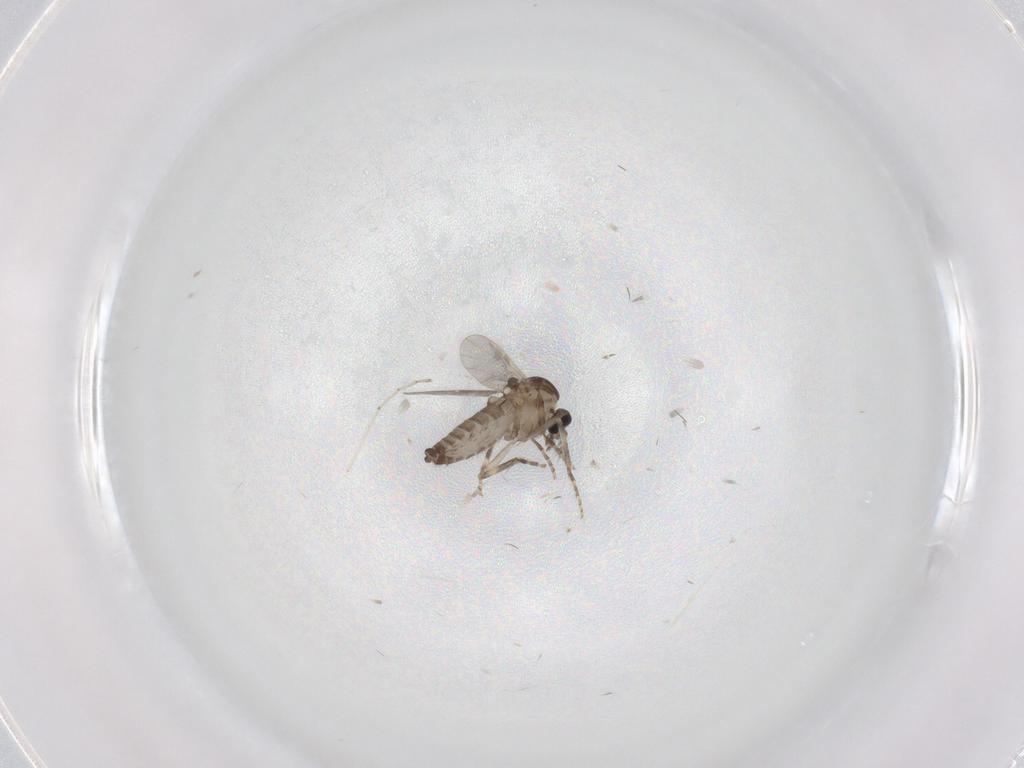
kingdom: Animalia
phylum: Arthropoda
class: Insecta
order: Diptera
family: Ceratopogonidae
